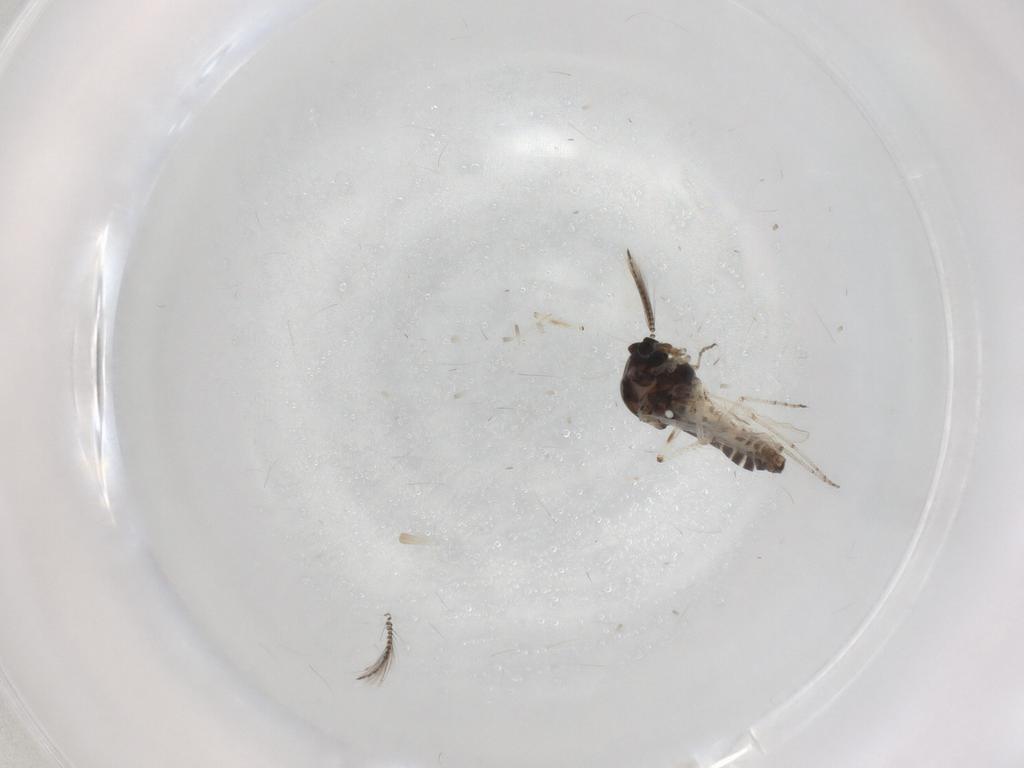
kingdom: Animalia
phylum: Arthropoda
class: Insecta
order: Diptera
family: Ceratopogonidae
